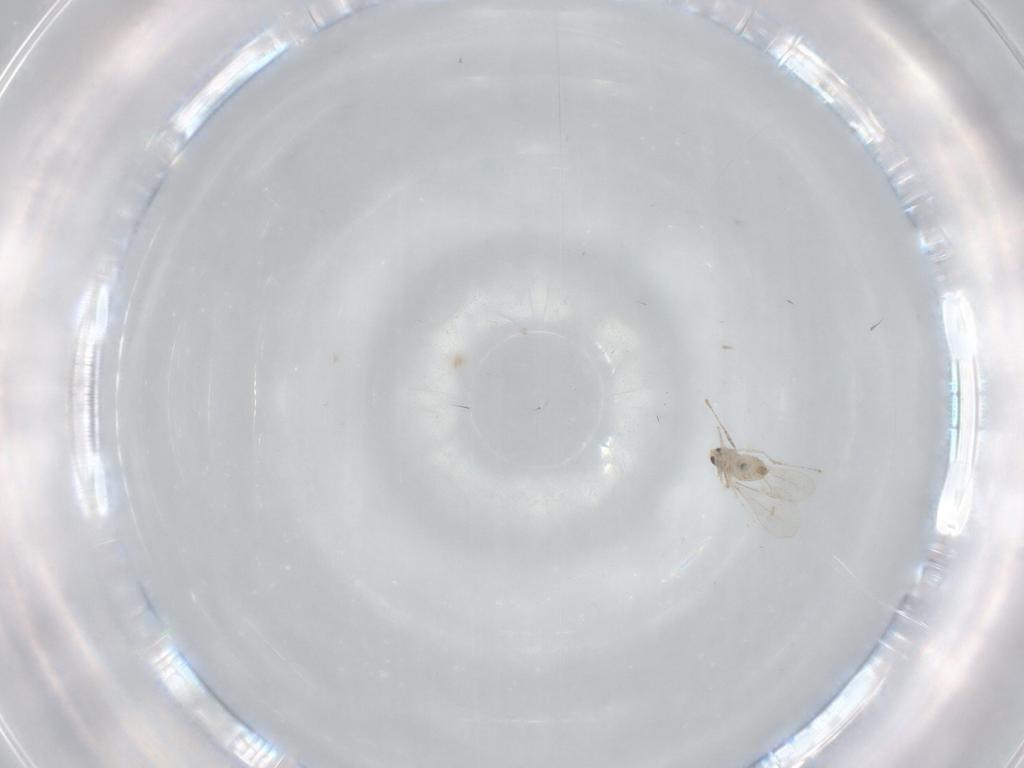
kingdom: Animalia
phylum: Arthropoda
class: Insecta
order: Diptera
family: Cecidomyiidae
